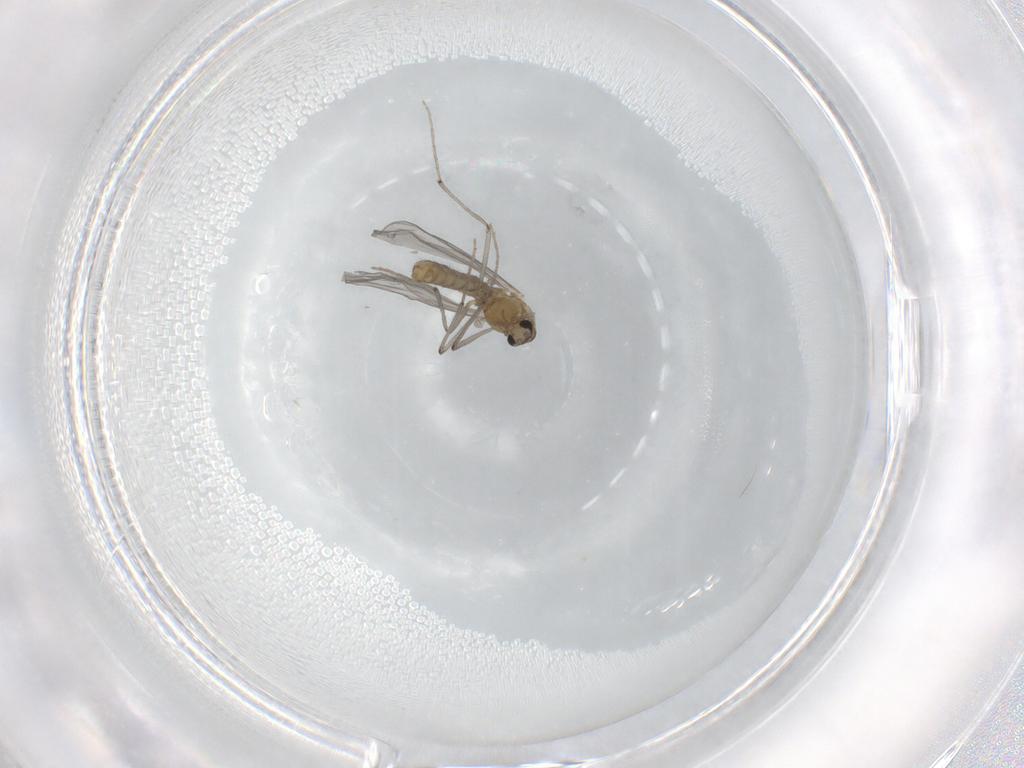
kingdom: Animalia
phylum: Arthropoda
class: Insecta
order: Diptera
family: Chironomidae
